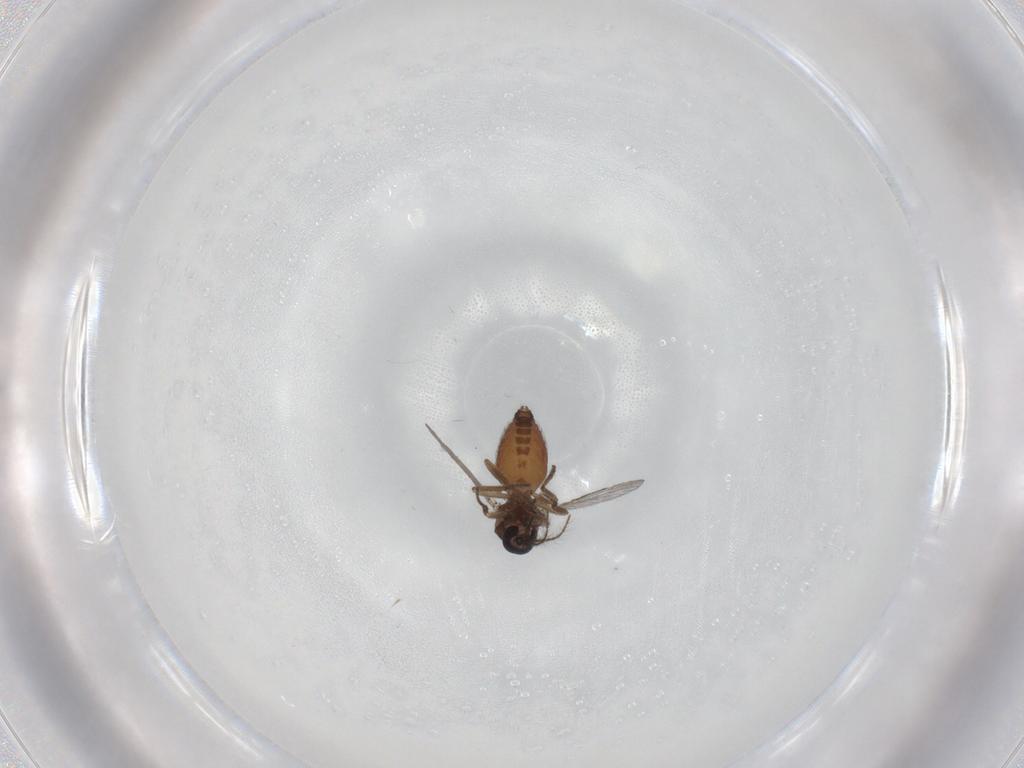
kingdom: Animalia
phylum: Arthropoda
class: Insecta
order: Diptera
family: Ceratopogonidae
